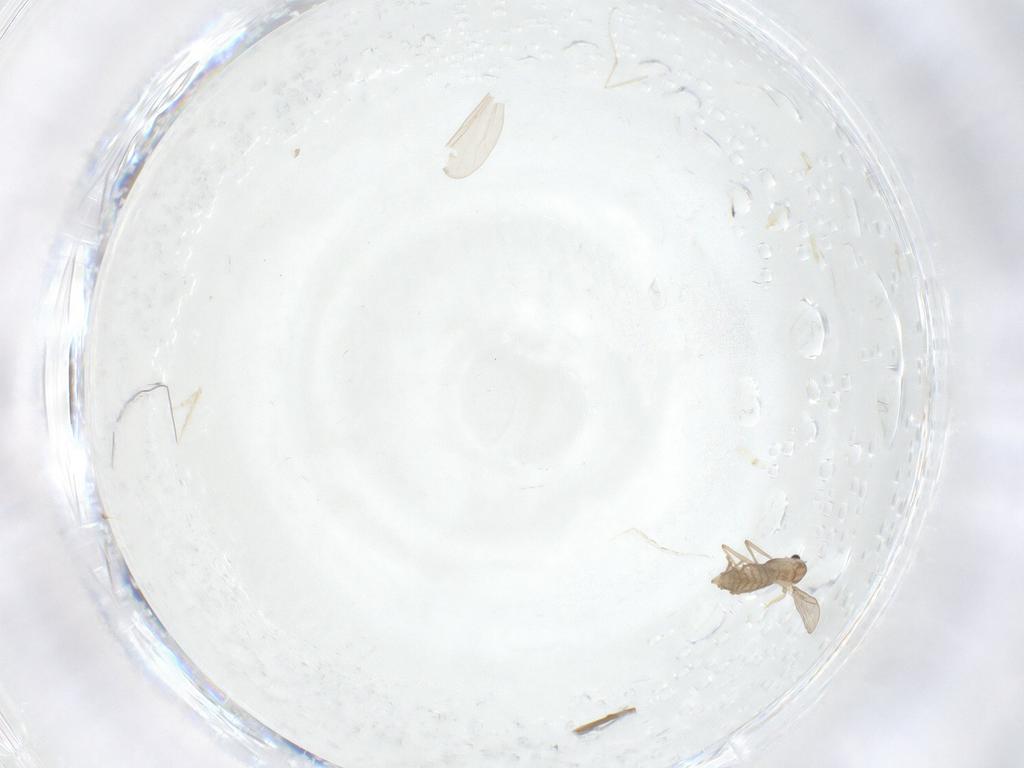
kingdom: Animalia
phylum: Arthropoda
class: Insecta
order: Diptera
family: Chironomidae
